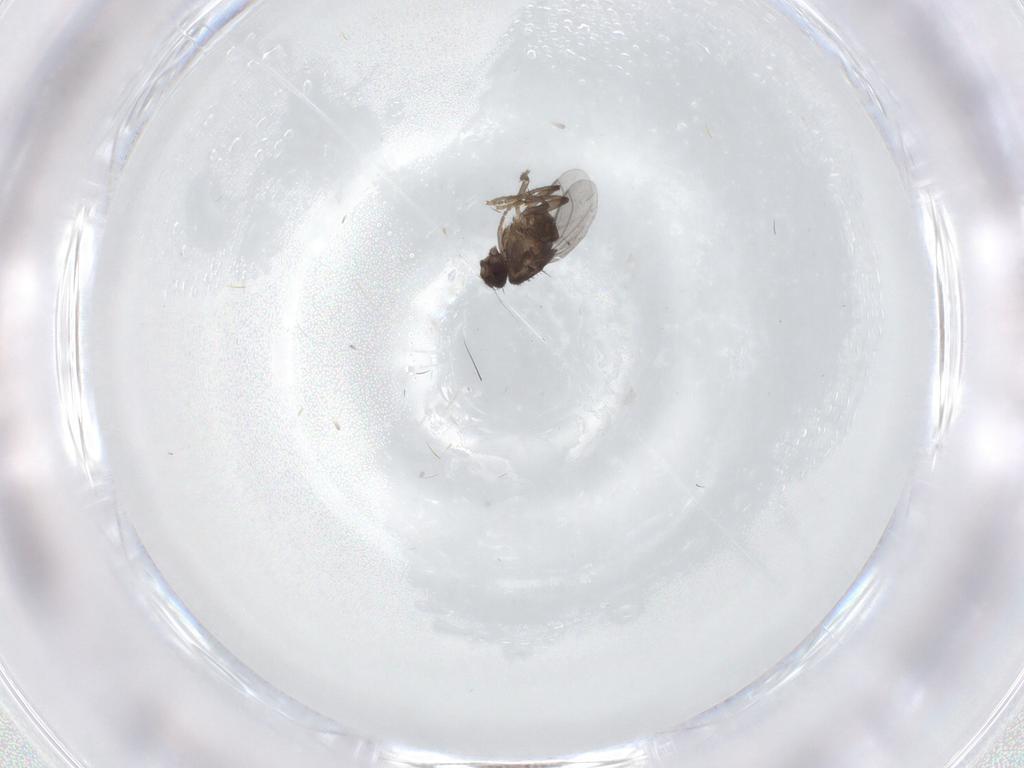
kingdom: Animalia
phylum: Arthropoda
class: Insecta
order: Diptera
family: Sphaeroceridae
